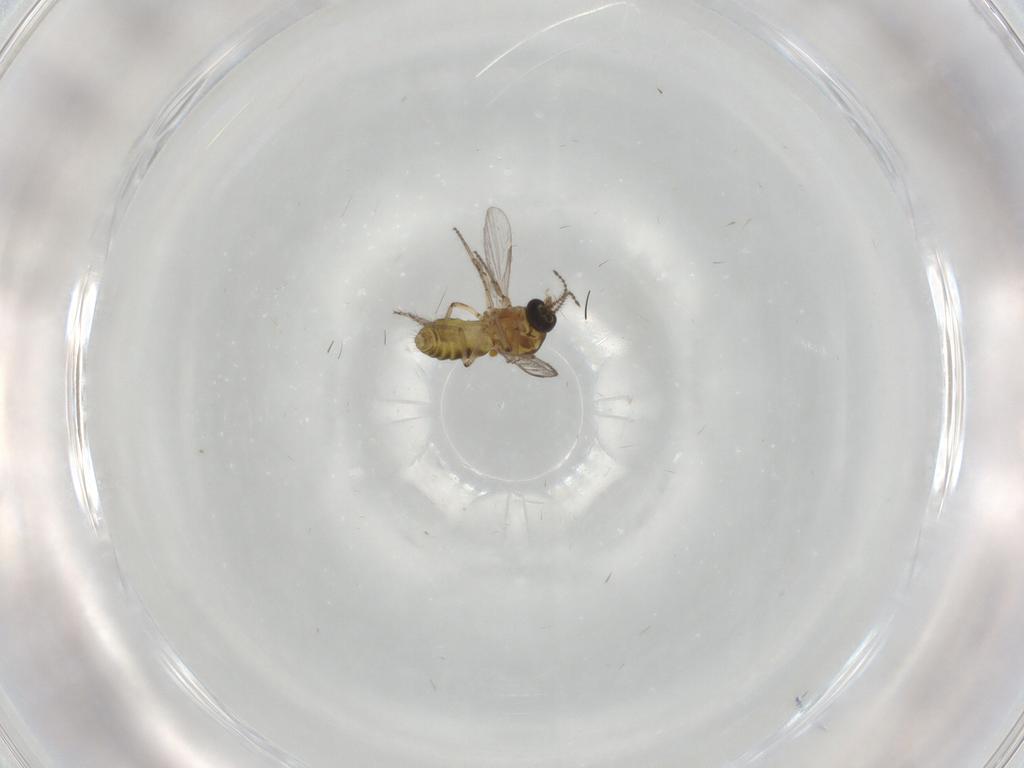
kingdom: Animalia
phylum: Arthropoda
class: Insecta
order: Diptera
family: Ceratopogonidae
